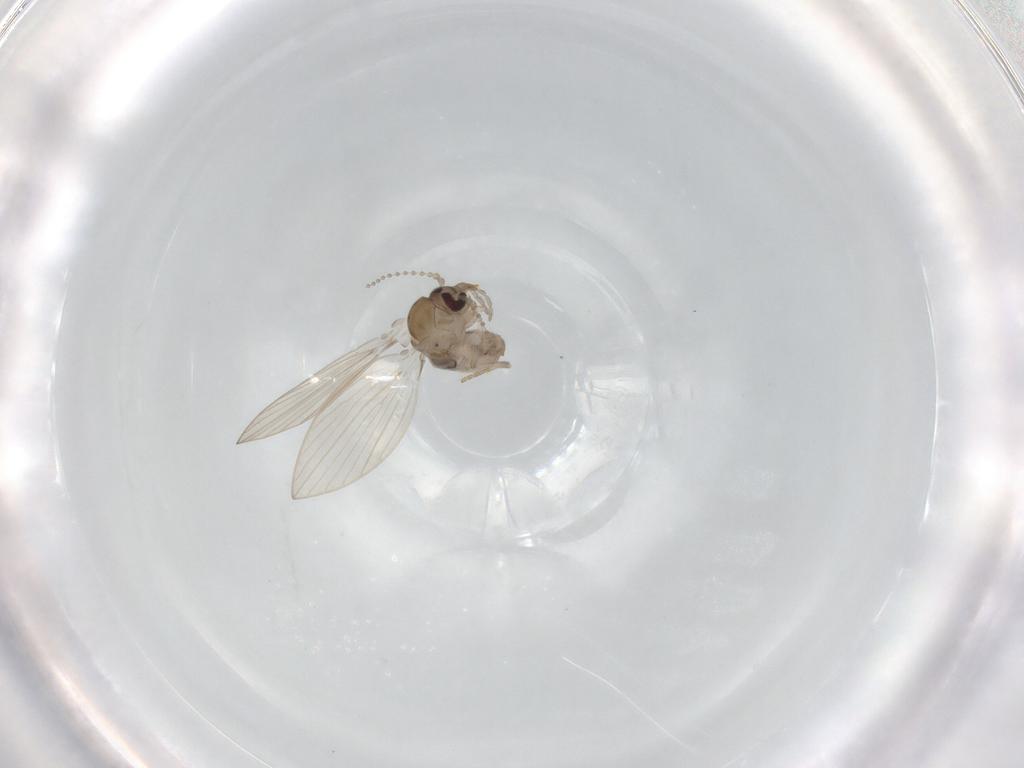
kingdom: Animalia
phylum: Arthropoda
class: Insecta
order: Diptera
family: Psychodidae
